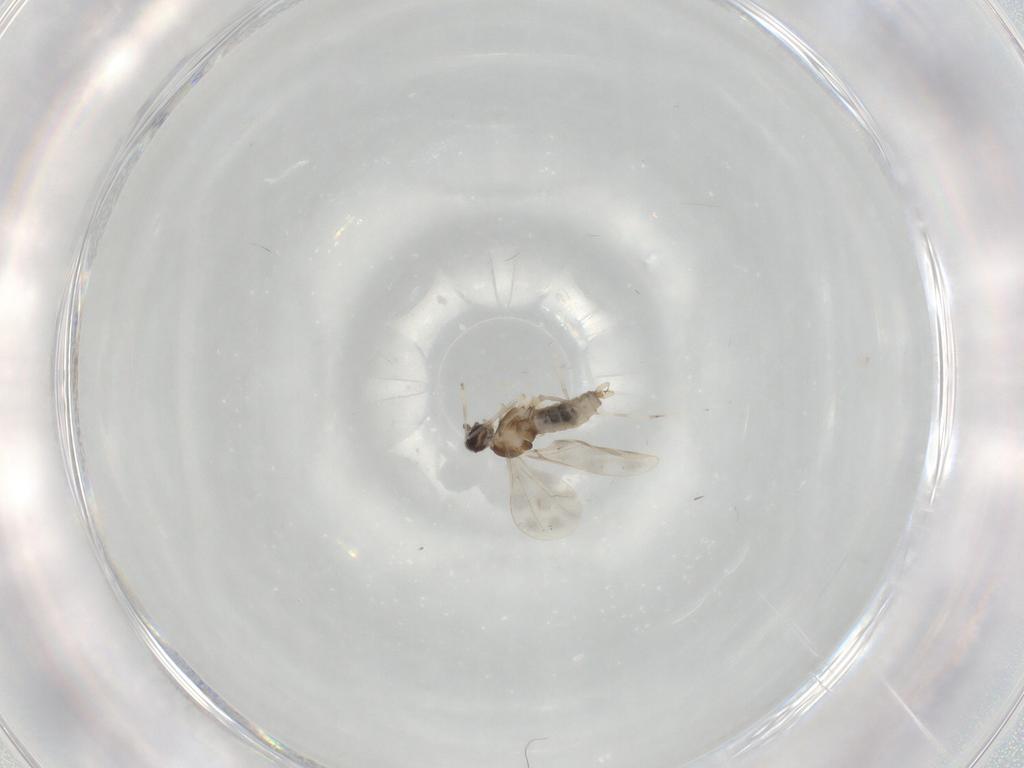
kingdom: Animalia
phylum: Arthropoda
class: Insecta
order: Diptera
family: Cecidomyiidae
